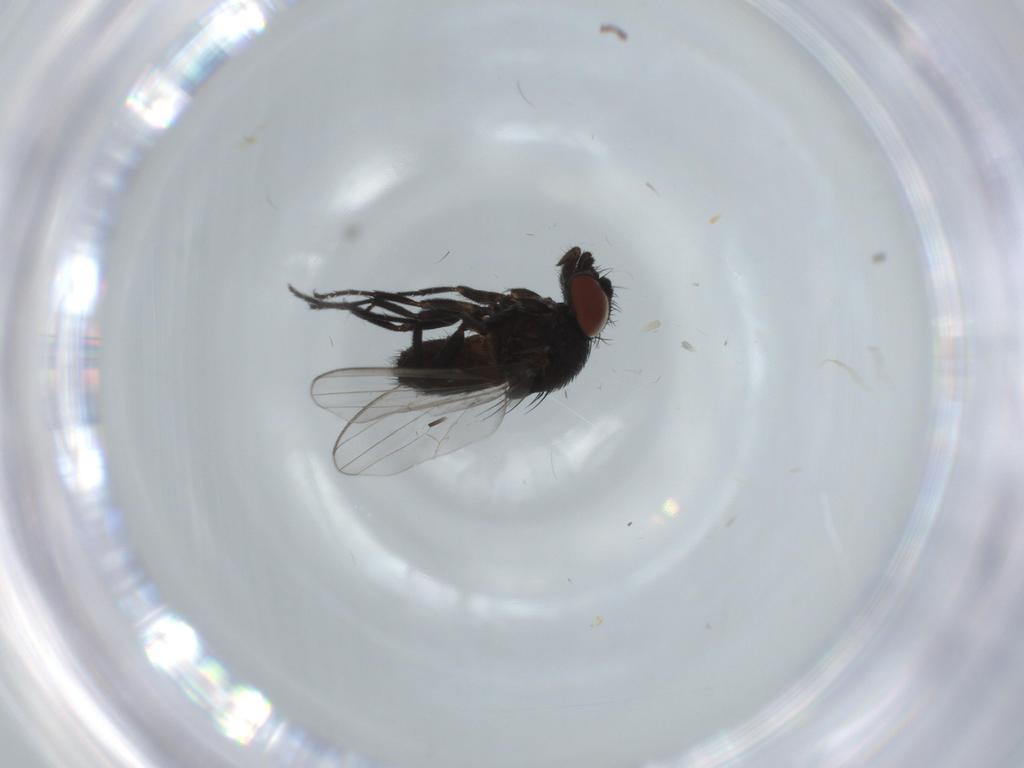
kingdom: Animalia
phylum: Arthropoda
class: Insecta
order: Diptera
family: Milichiidae
